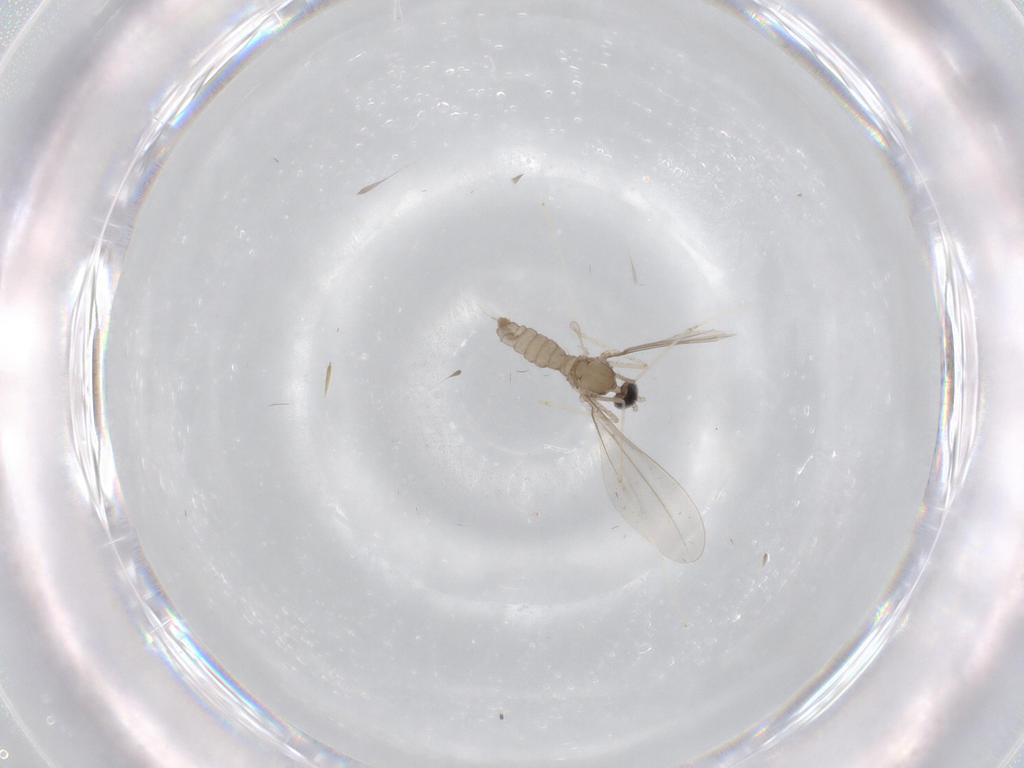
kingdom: Animalia
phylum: Arthropoda
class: Insecta
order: Diptera
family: Cecidomyiidae
